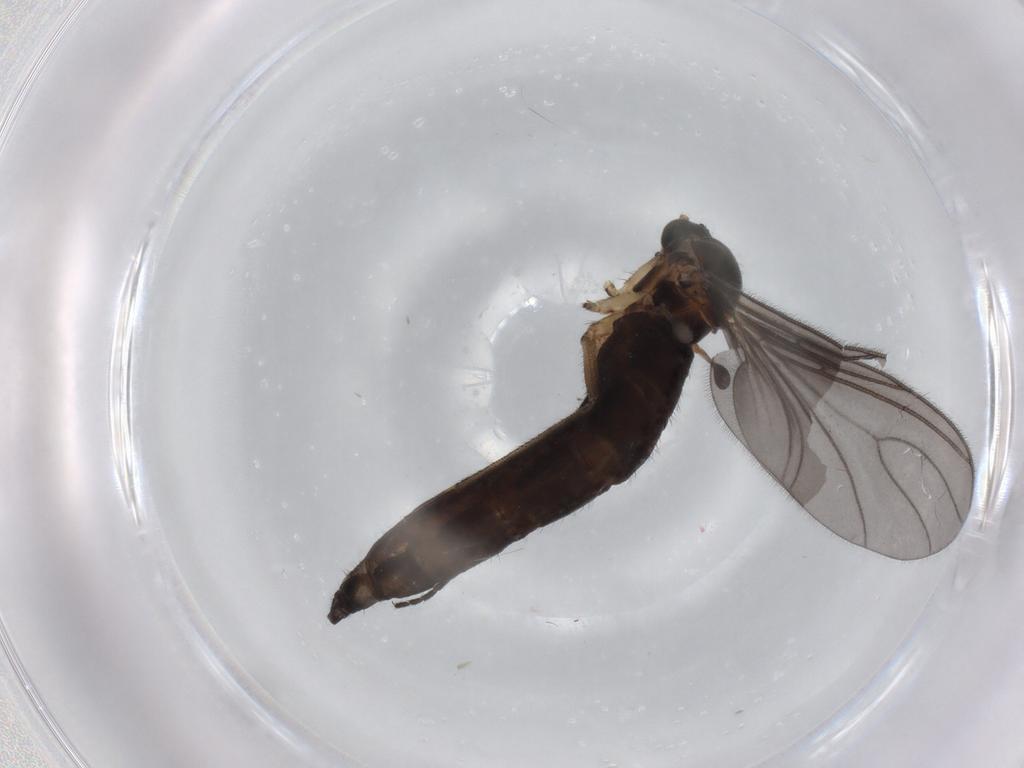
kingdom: Animalia
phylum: Arthropoda
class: Insecta
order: Diptera
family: Sciaridae
